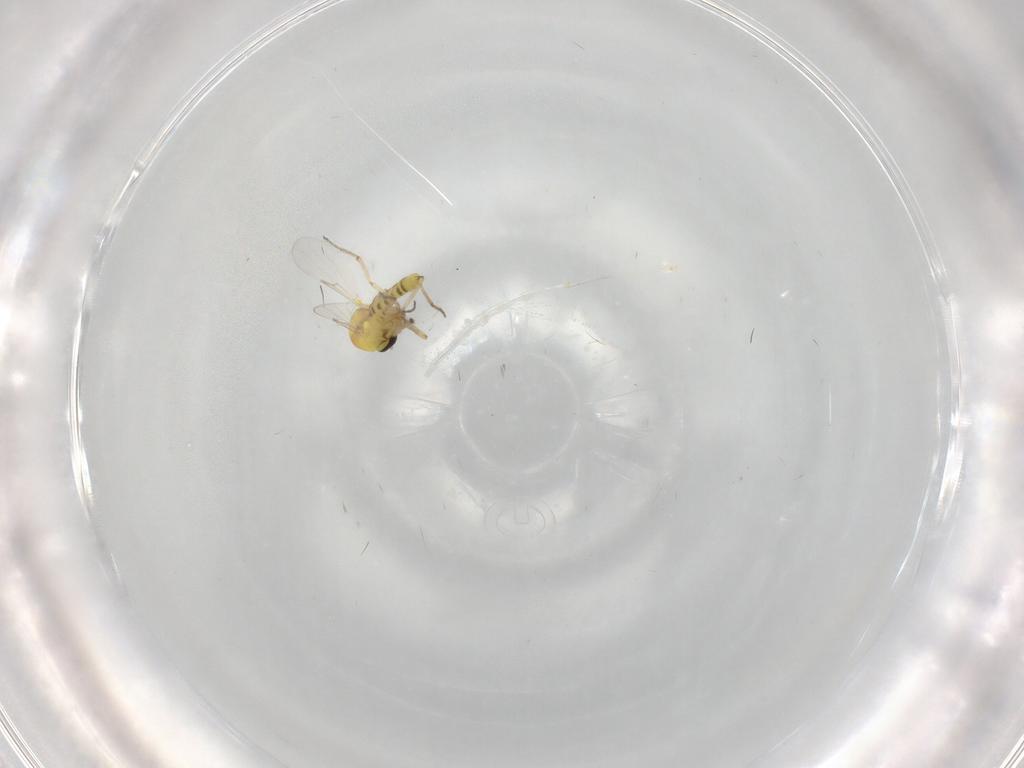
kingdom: Animalia
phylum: Arthropoda
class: Insecta
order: Diptera
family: Ceratopogonidae
